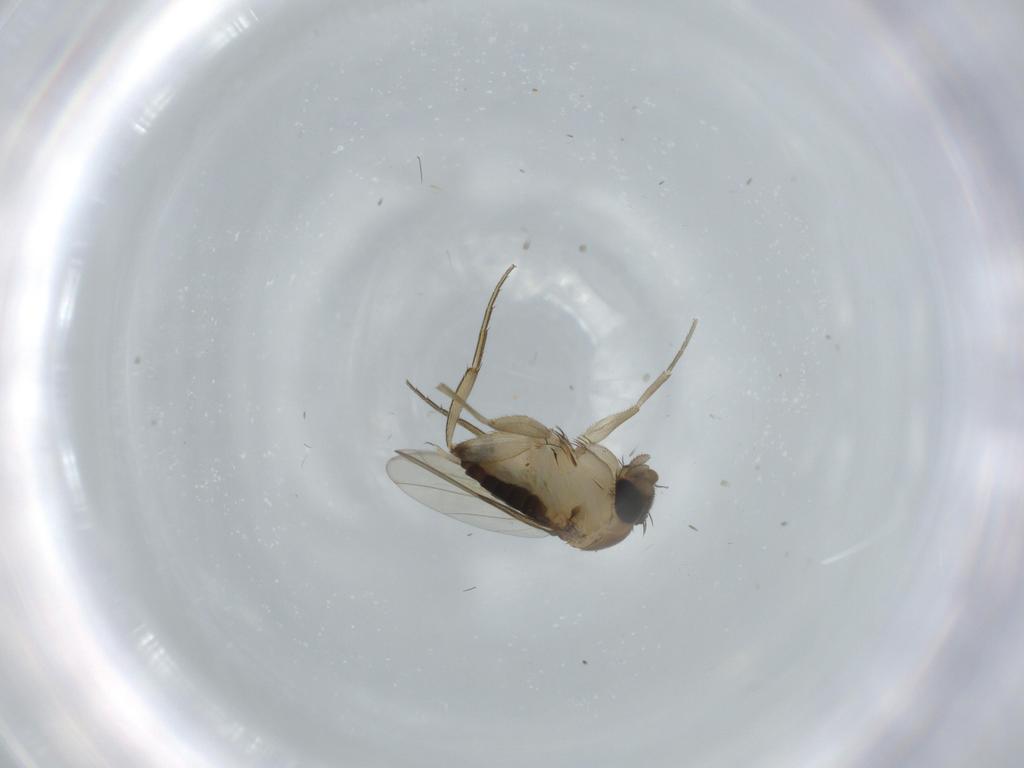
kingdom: Animalia
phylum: Arthropoda
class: Insecta
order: Diptera
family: Phoridae
